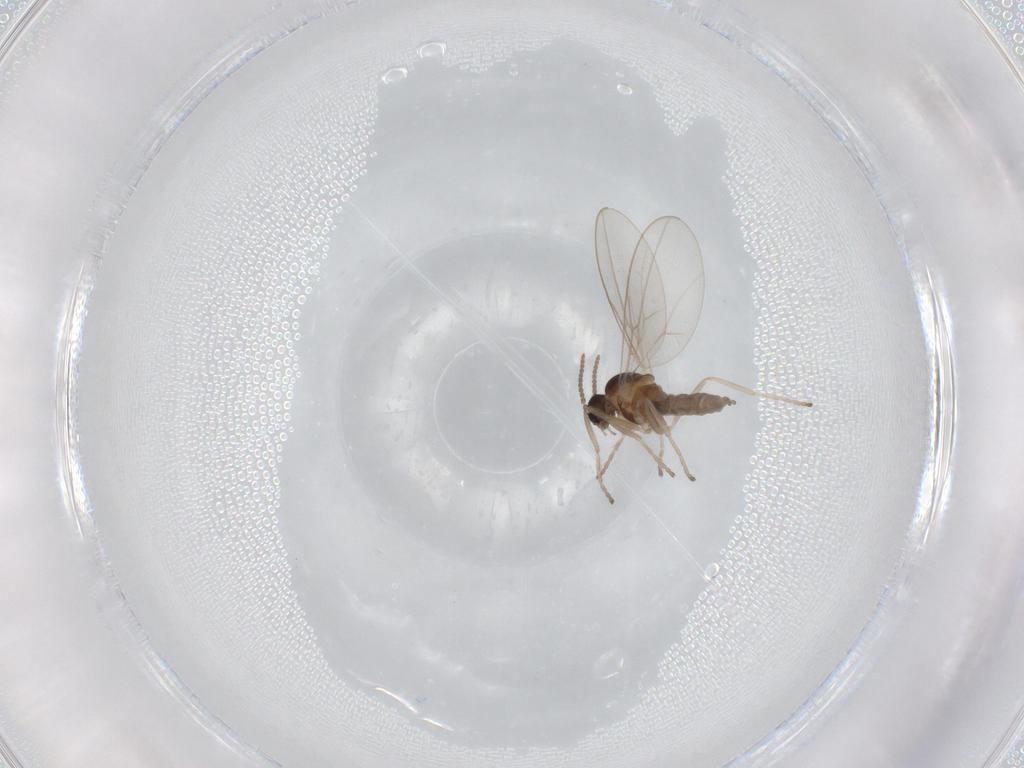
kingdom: Animalia
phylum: Arthropoda
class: Insecta
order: Diptera
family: Cecidomyiidae
